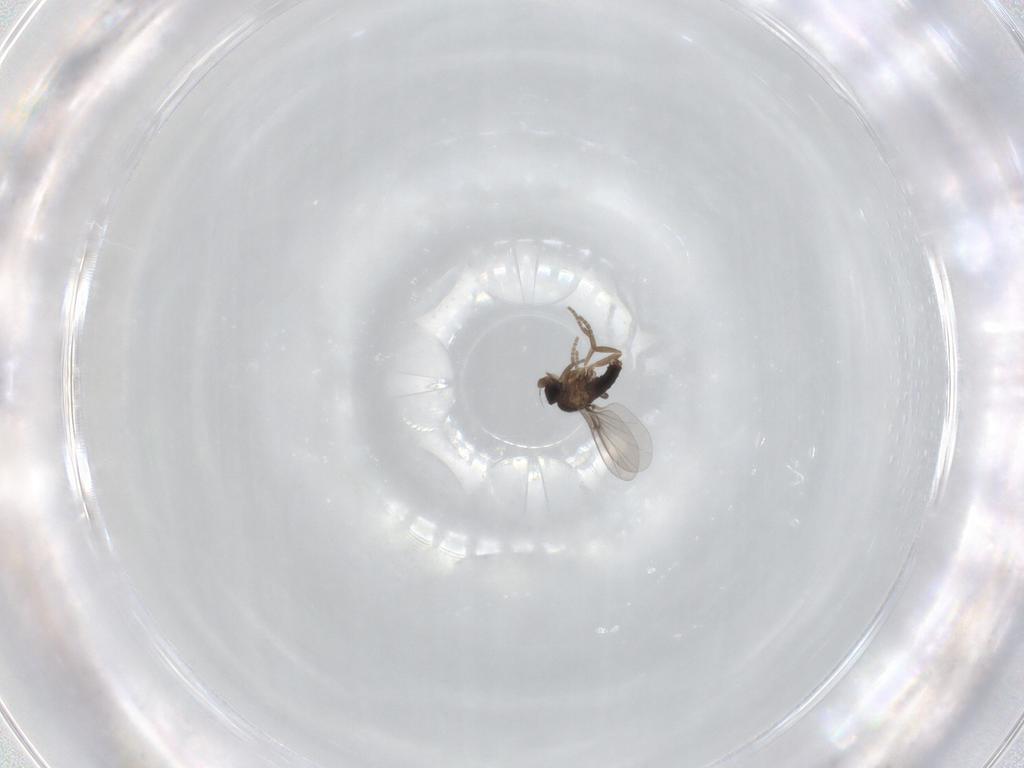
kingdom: Animalia
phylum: Arthropoda
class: Insecta
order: Diptera
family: Phoridae
